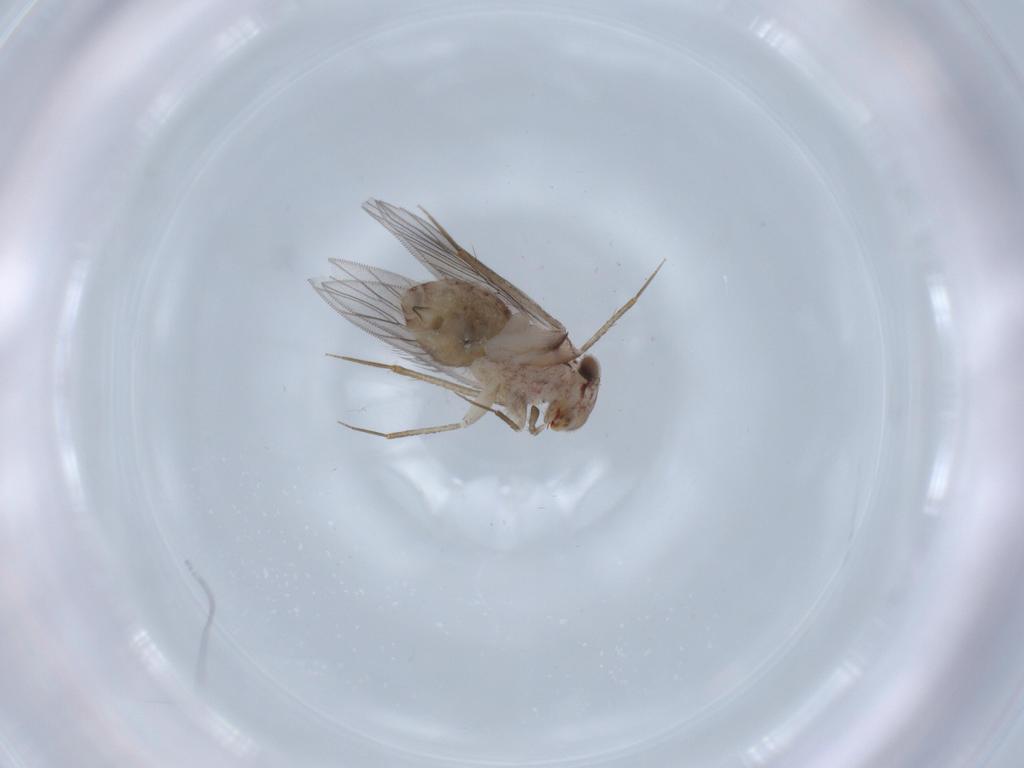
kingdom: Animalia
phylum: Arthropoda
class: Insecta
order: Psocodea
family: Lepidopsocidae
